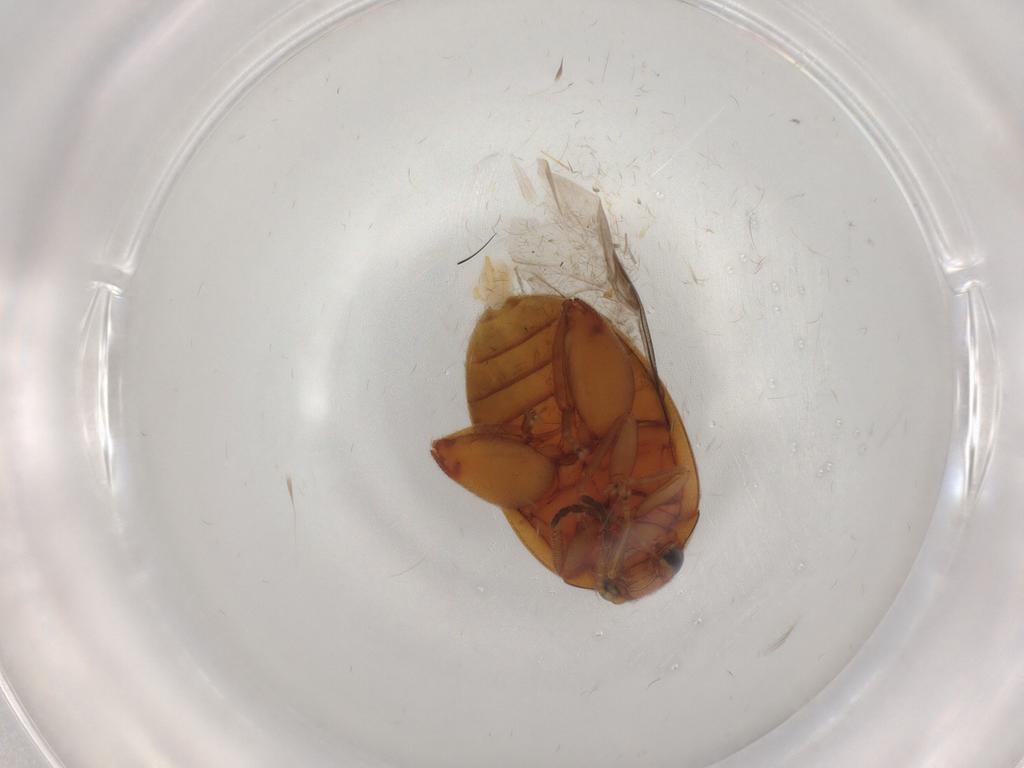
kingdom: Animalia
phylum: Arthropoda
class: Insecta
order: Coleoptera
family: Scirtidae
